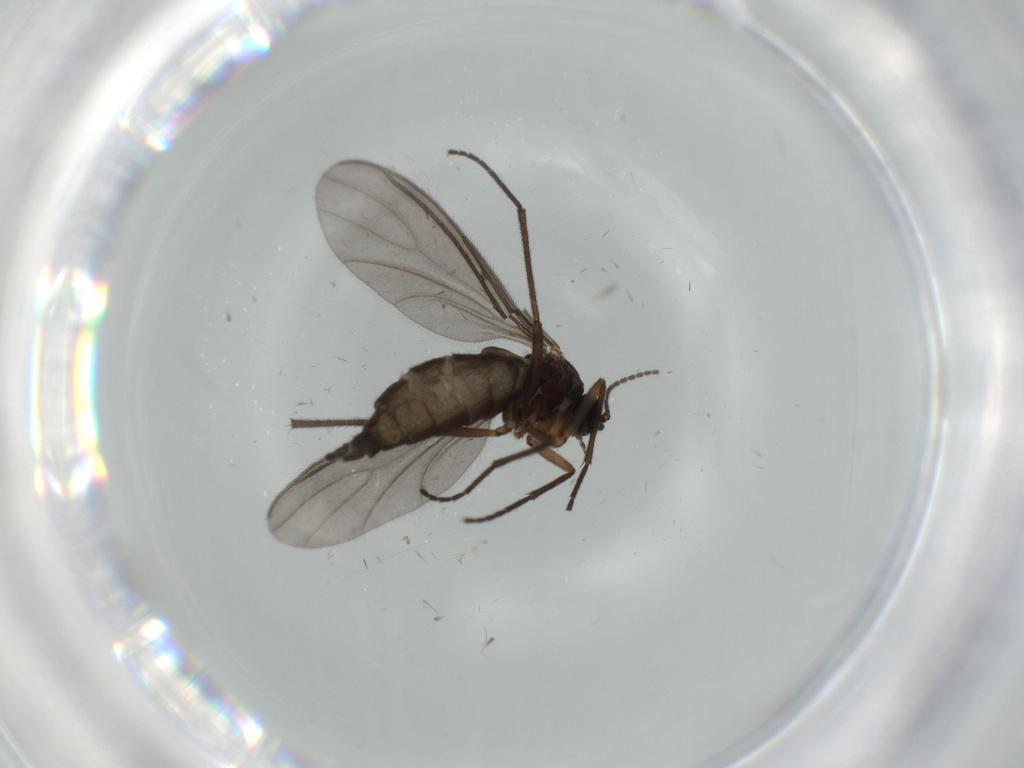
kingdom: Animalia
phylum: Arthropoda
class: Insecta
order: Diptera
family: Sciaridae
